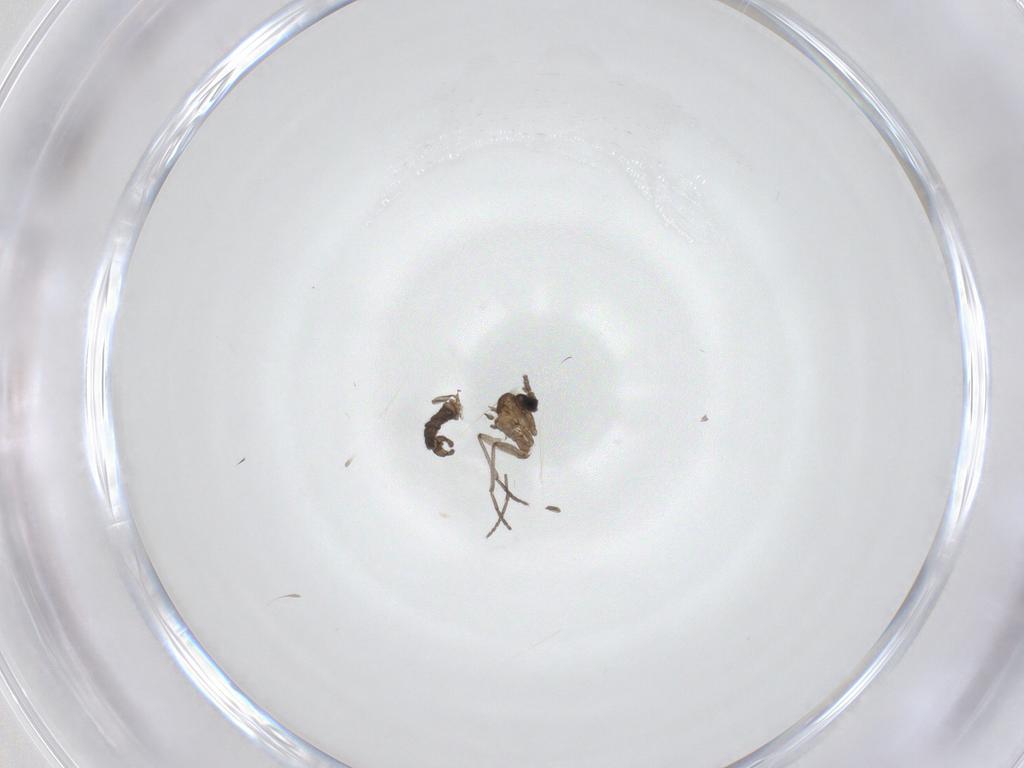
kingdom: Animalia
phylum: Arthropoda
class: Insecta
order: Diptera
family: Sciaridae
